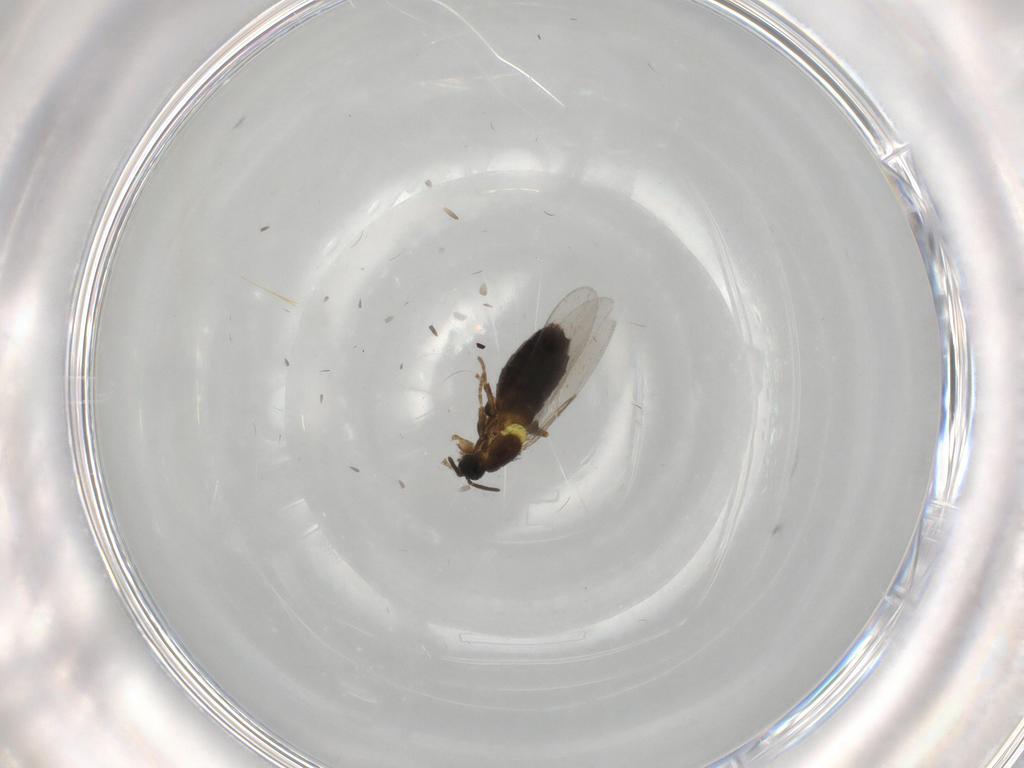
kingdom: Animalia
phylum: Arthropoda
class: Insecta
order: Diptera
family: Scatopsidae
